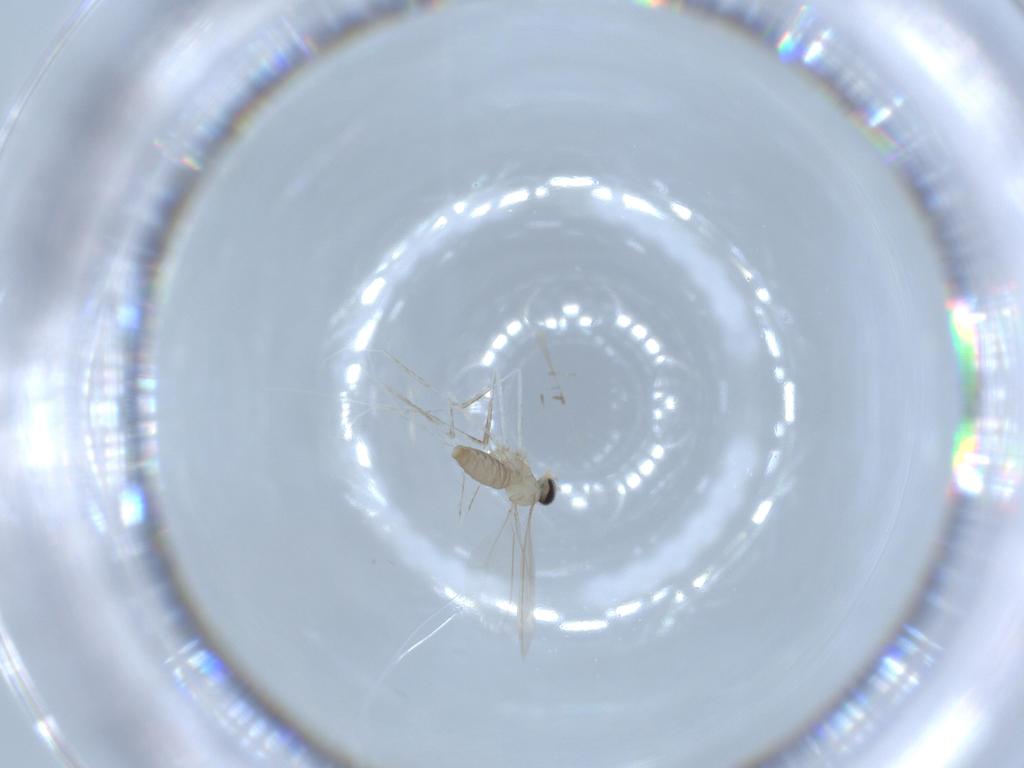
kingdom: Animalia
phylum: Arthropoda
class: Insecta
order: Diptera
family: Cecidomyiidae
